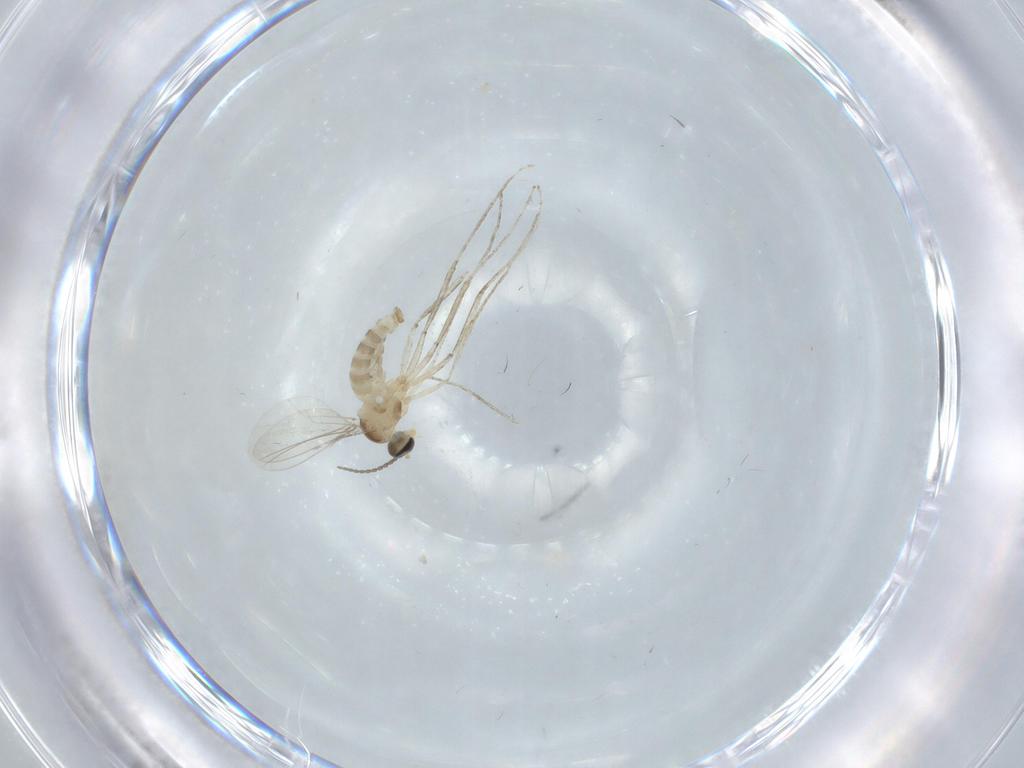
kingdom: Animalia
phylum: Arthropoda
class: Insecta
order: Diptera
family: Cecidomyiidae
